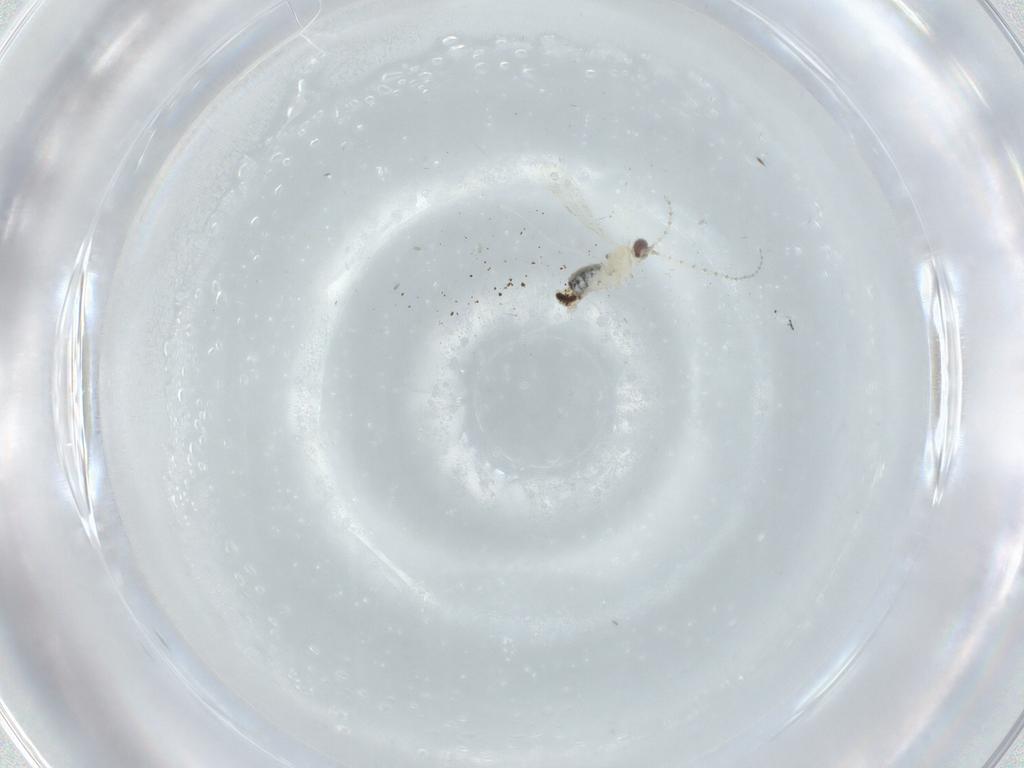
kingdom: Animalia
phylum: Arthropoda
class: Insecta
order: Diptera
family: Cecidomyiidae
